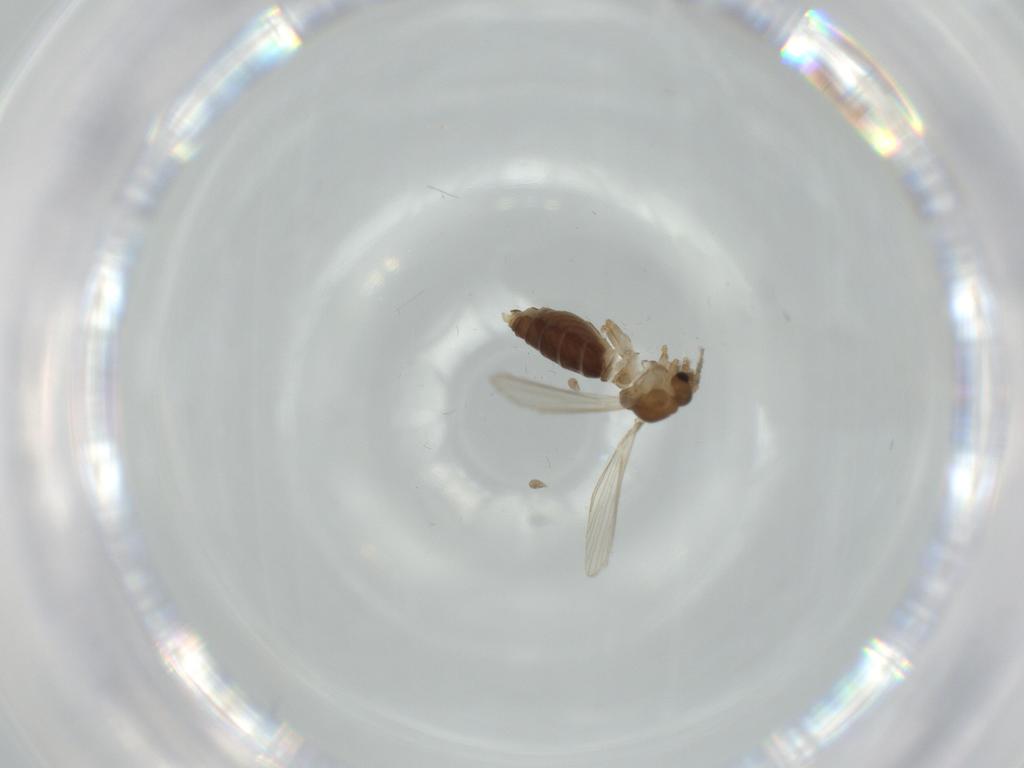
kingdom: Animalia
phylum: Arthropoda
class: Insecta
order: Diptera
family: Psychodidae
